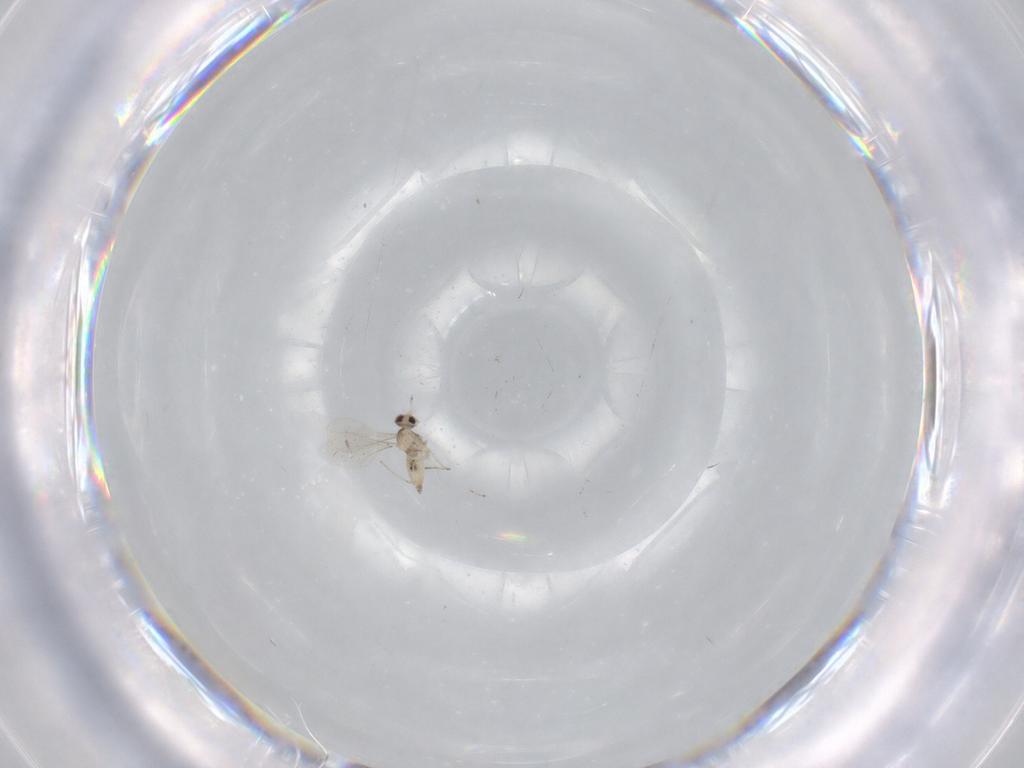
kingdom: Animalia
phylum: Arthropoda
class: Insecta
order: Diptera
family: Cecidomyiidae
